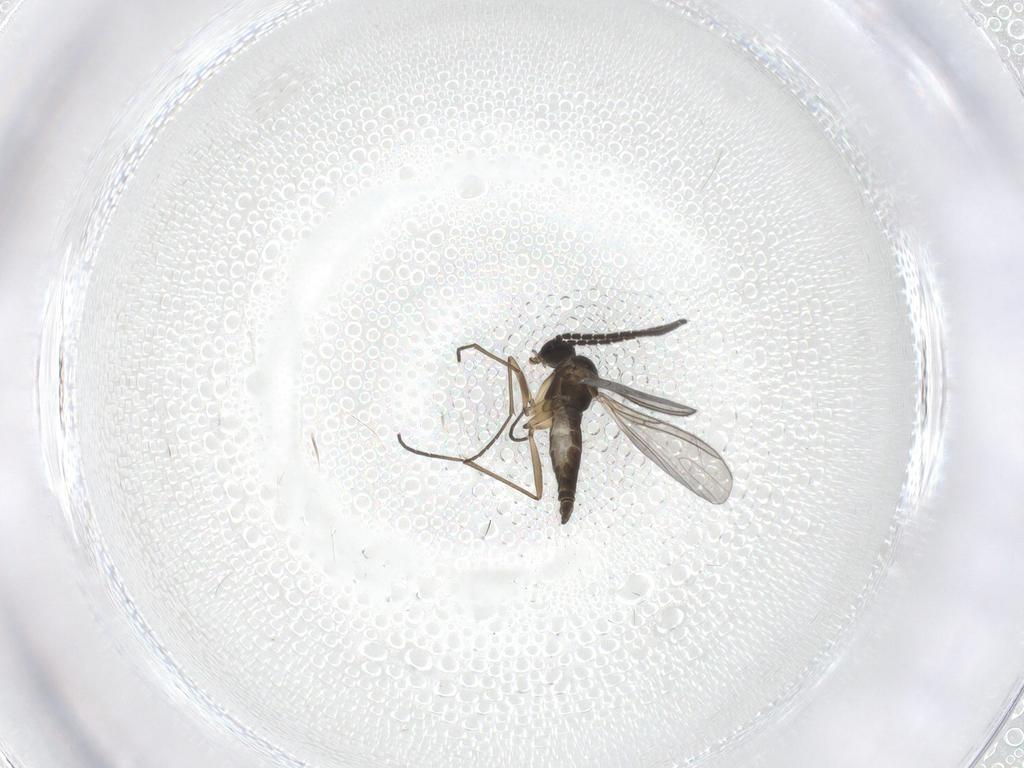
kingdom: Animalia
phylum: Arthropoda
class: Insecta
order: Diptera
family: Sciaridae
